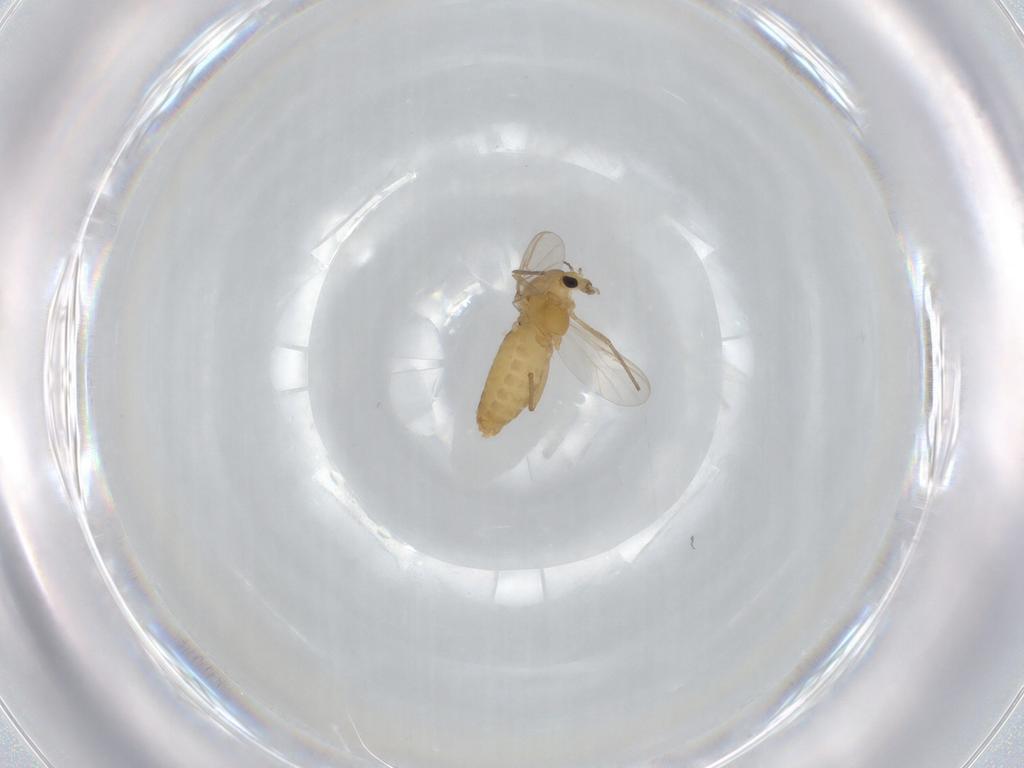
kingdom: Animalia
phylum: Arthropoda
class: Insecta
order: Diptera
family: Chironomidae
